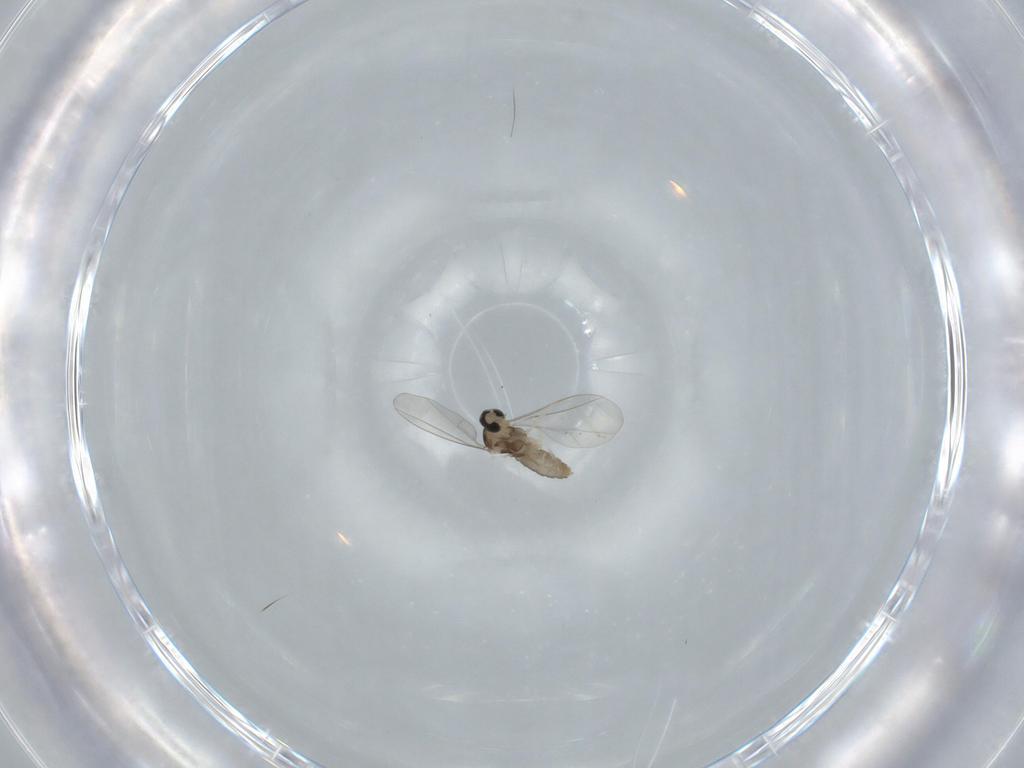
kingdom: Animalia
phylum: Arthropoda
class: Insecta
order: Diptera
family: Cecidomyiidae
